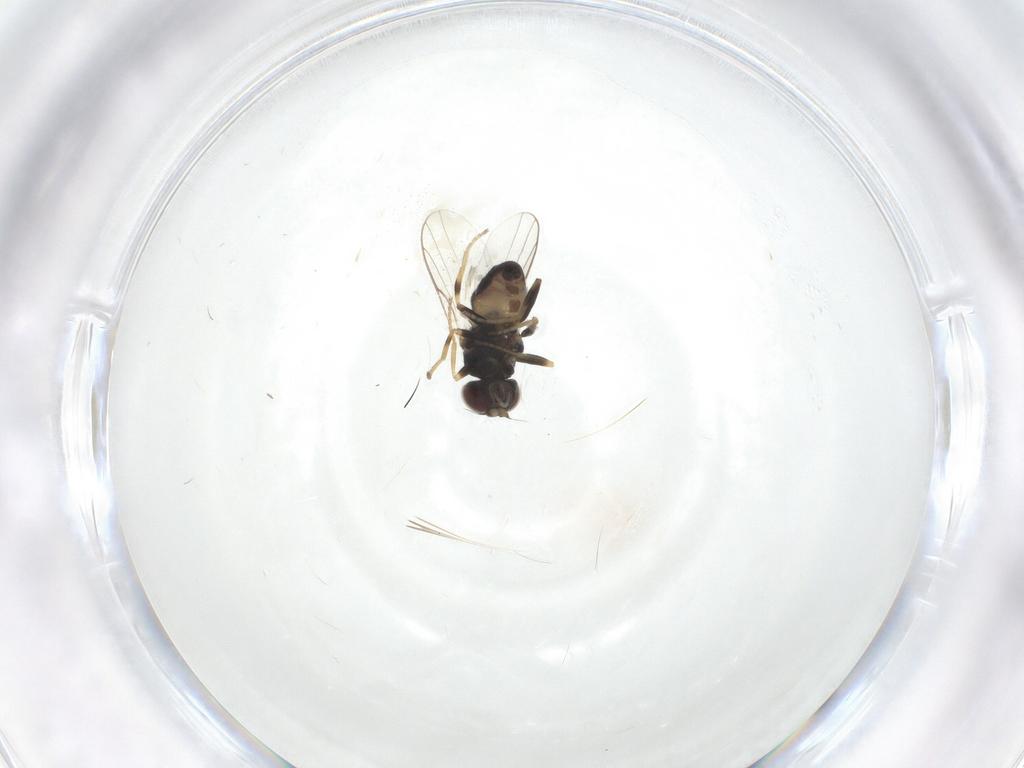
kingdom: Animalia
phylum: Arthropoda
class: Insecta
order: Diptera
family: Chloropidae
